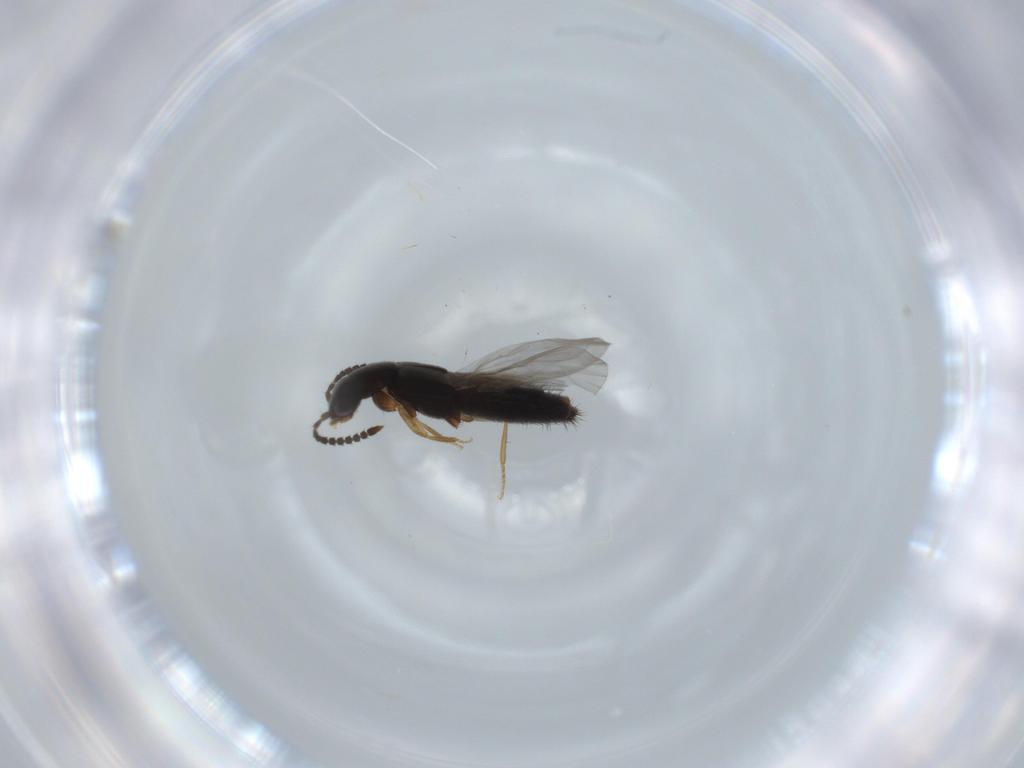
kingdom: Animalia
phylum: Arthropoda
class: Insecta
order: Coleoptera
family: Staphylinidae
